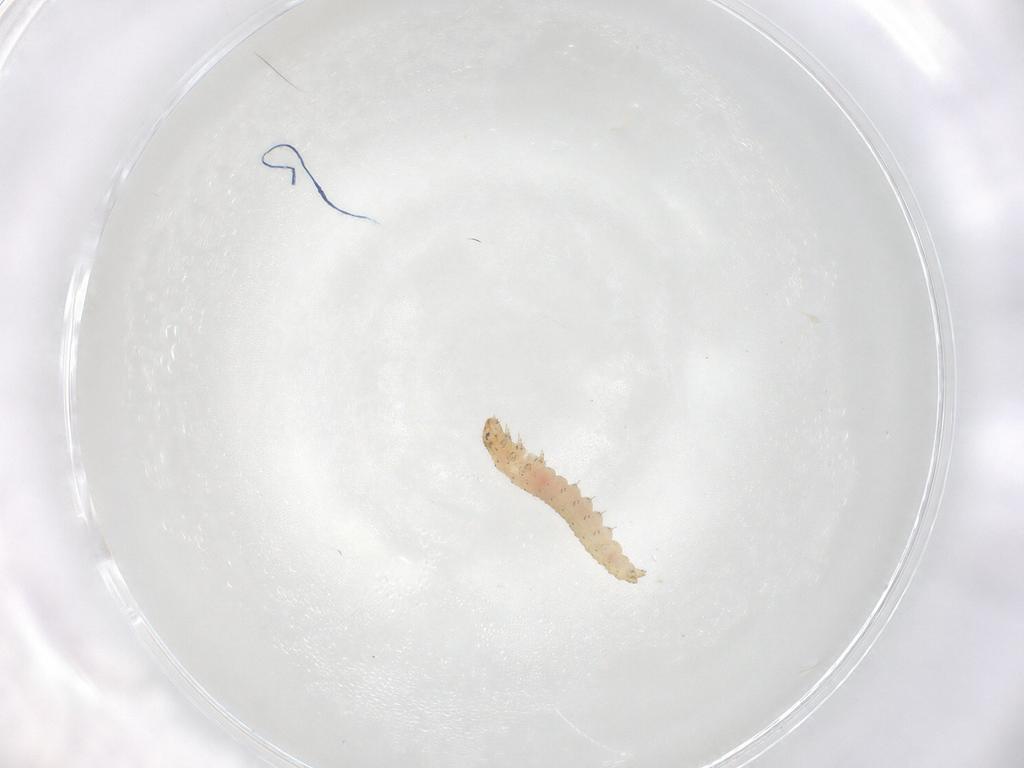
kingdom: Animalia
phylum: Arthropoda
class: Insecta
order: Lepidoptera
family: Gelechiidae
